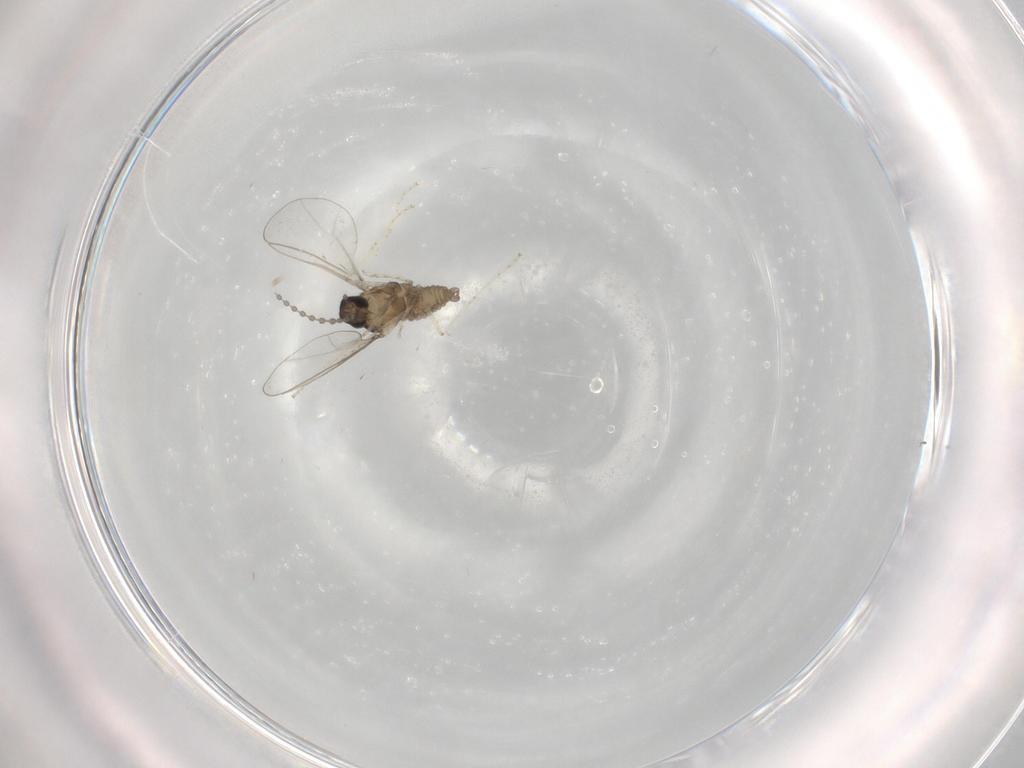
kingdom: Animalia
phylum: Arthropoda
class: Insecta
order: Diptera
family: Cecidomyiidae
